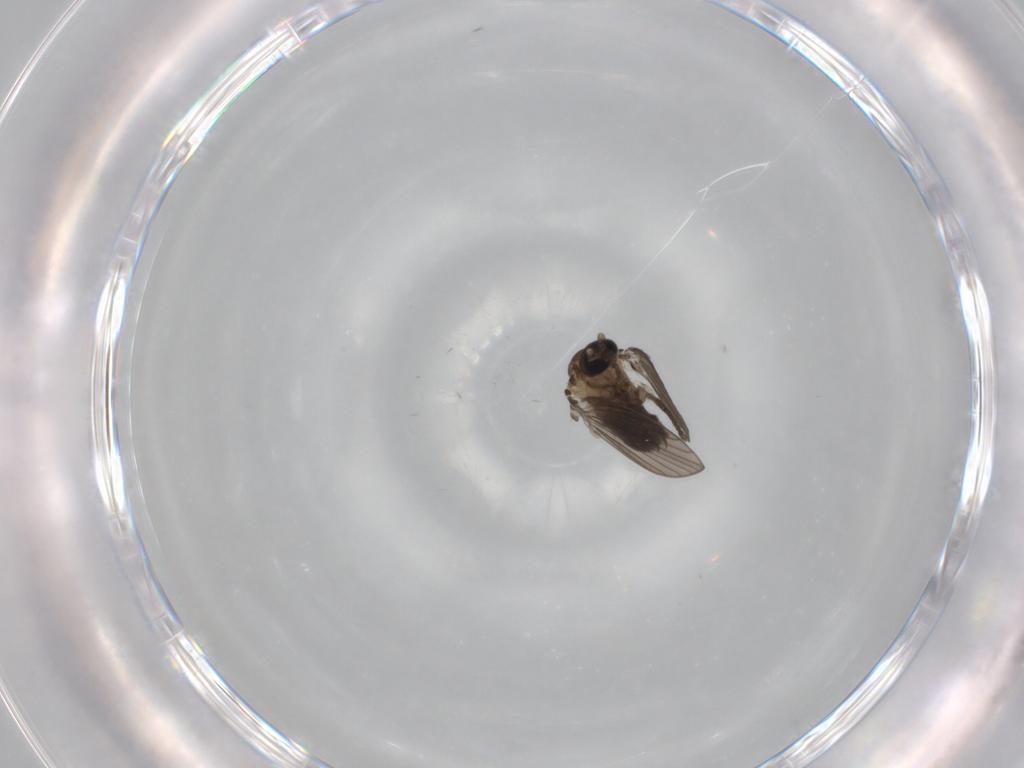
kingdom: Animalia
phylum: Arthropoda
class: Insecta
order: Diptera
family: Psychodidae
